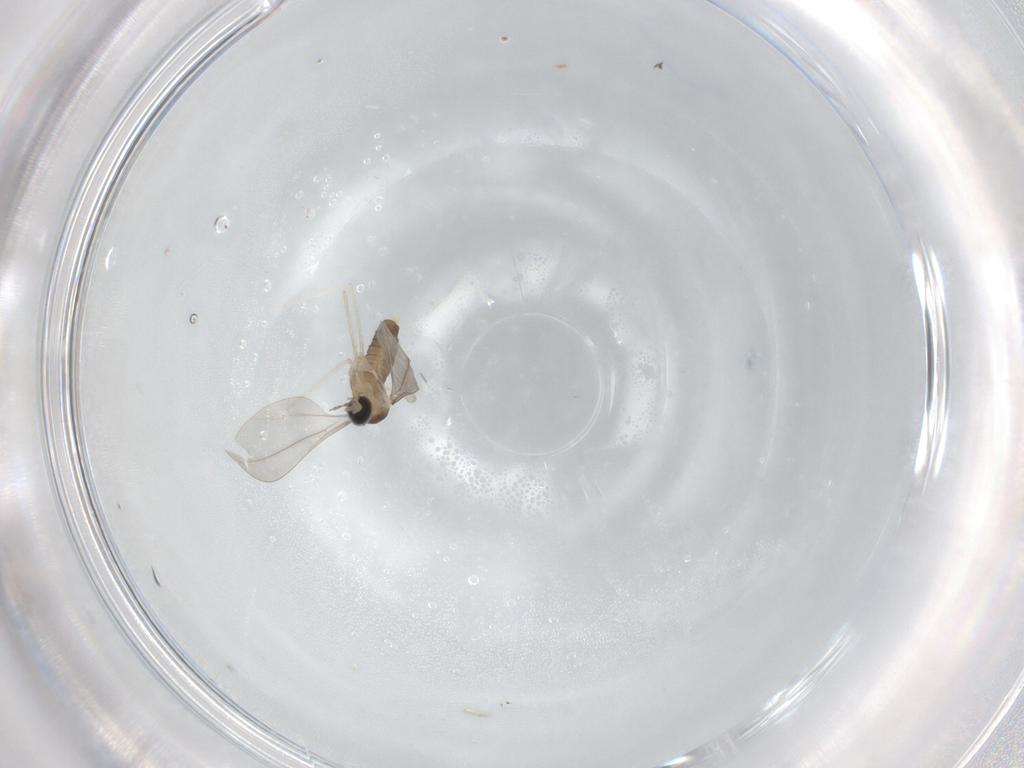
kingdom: Animalia
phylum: Arthropoda
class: Insecta
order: Diptera
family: Chironomidae
